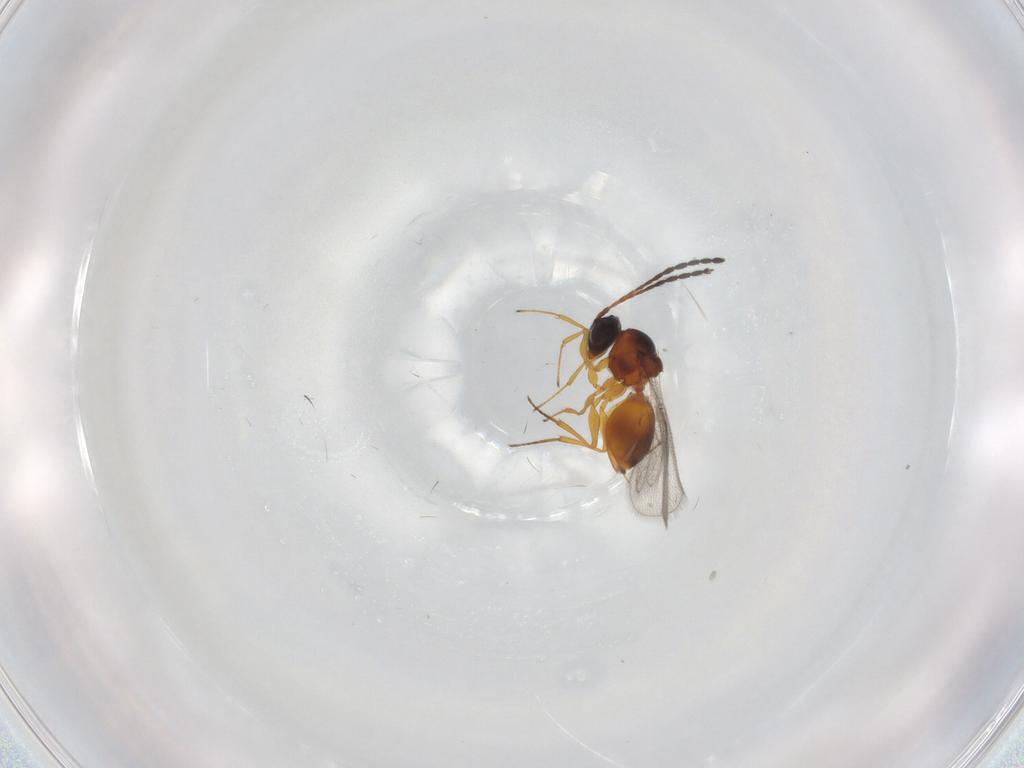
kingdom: Animalia
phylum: Arthropoda
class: Insecta
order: Hymenoptera
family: Figitidae
